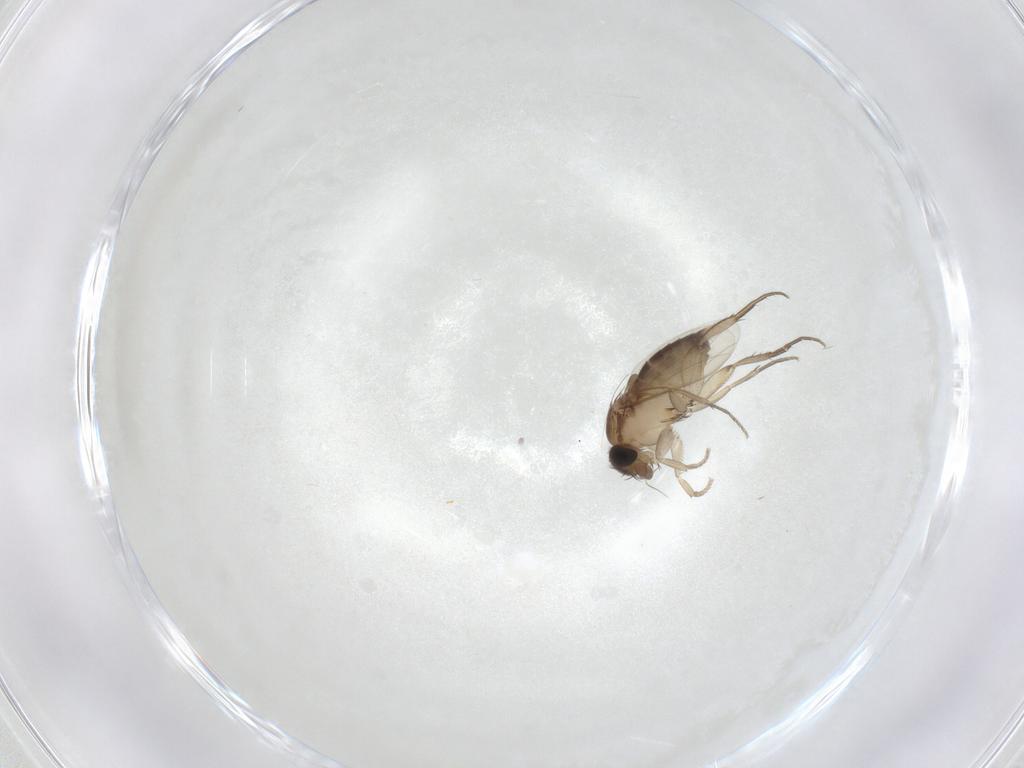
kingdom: Animalia
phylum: Arthropoda
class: Insecta
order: Diptera
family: Phoridae
